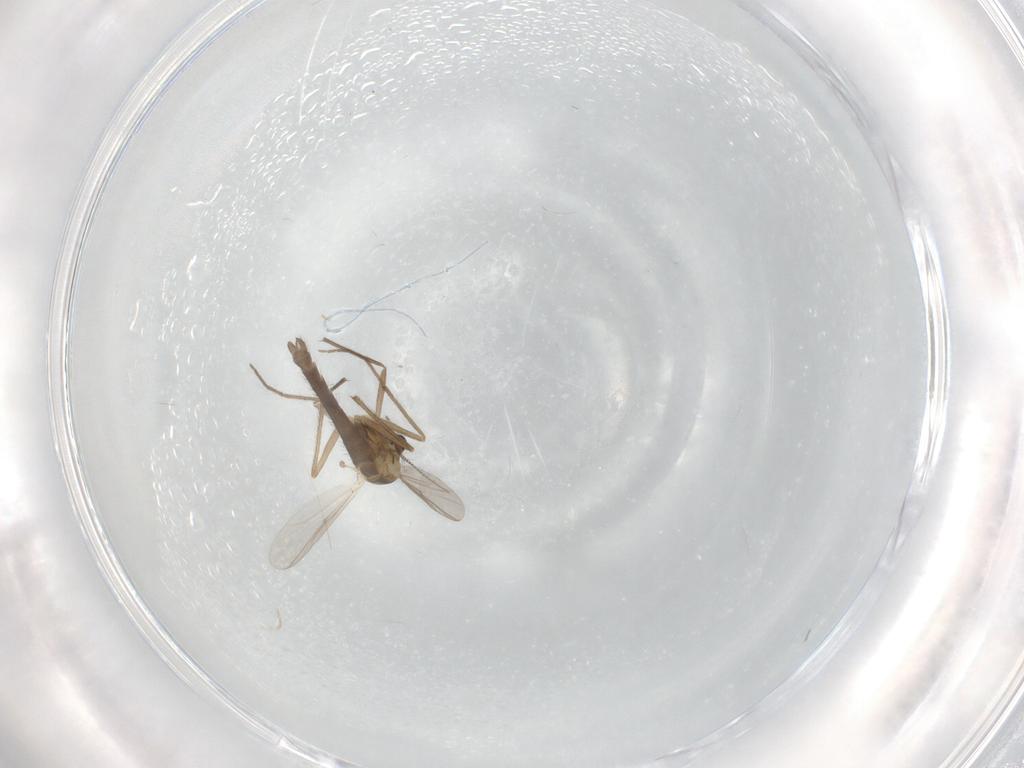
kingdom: Animalia
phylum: Arthropoda
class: Insecta
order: Diptera
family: Chironomidae
